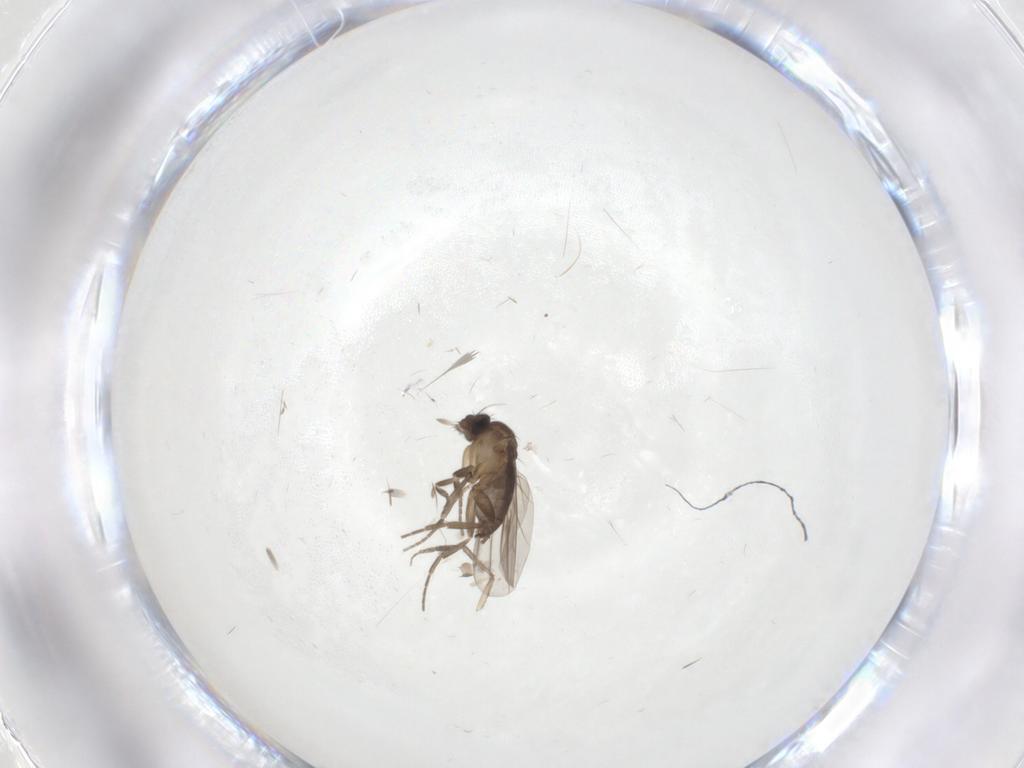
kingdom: Animalia
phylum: Arthropoda
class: Insecta
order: Diptera
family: Phoridae
